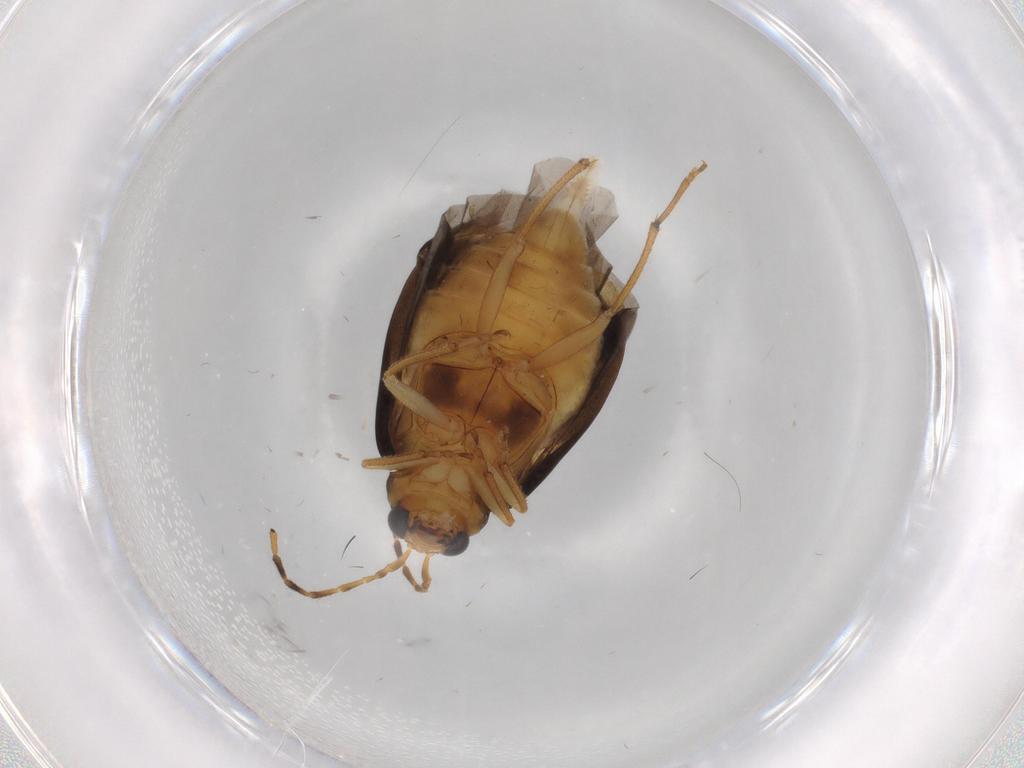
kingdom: Animalia
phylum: Arthropoda
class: Insecta
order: Coleoptera
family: Chrysomelidae
